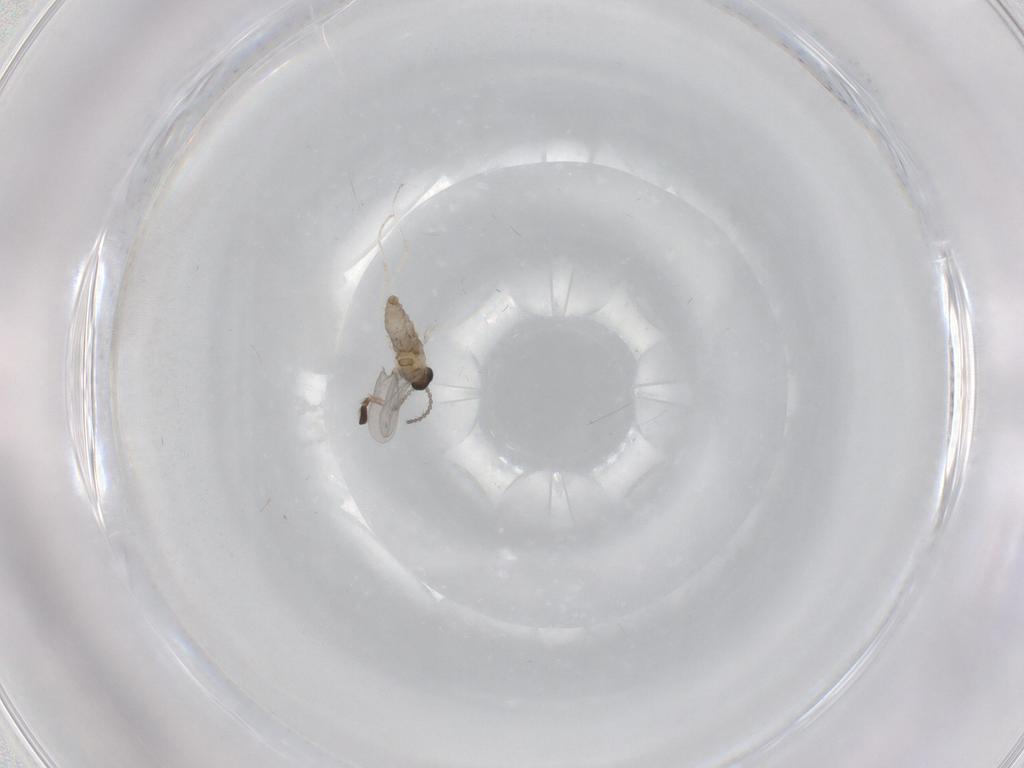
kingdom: Animalia
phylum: Arthropoda
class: Insecta
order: Diptera
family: Cecidomyiidae
